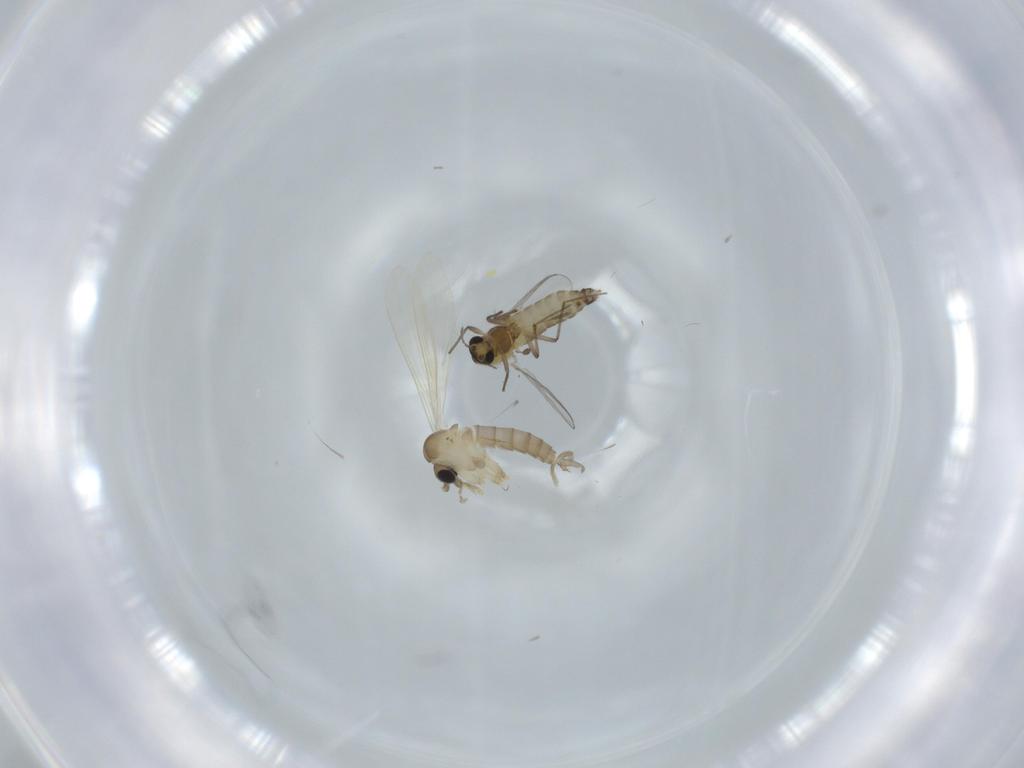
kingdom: Animalia
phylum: Arthropoda
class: Insecta
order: Diptera
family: Chironomidae
